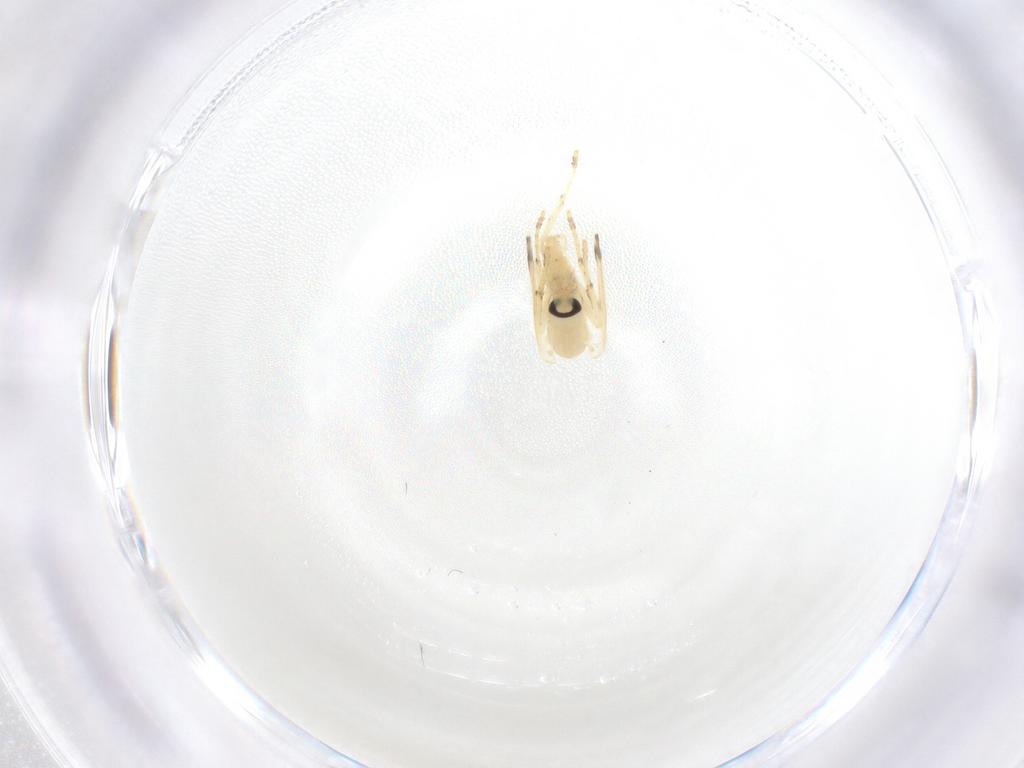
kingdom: Animalia
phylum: Arthropoda
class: Insecta
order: Diptera
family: Psychodidae
